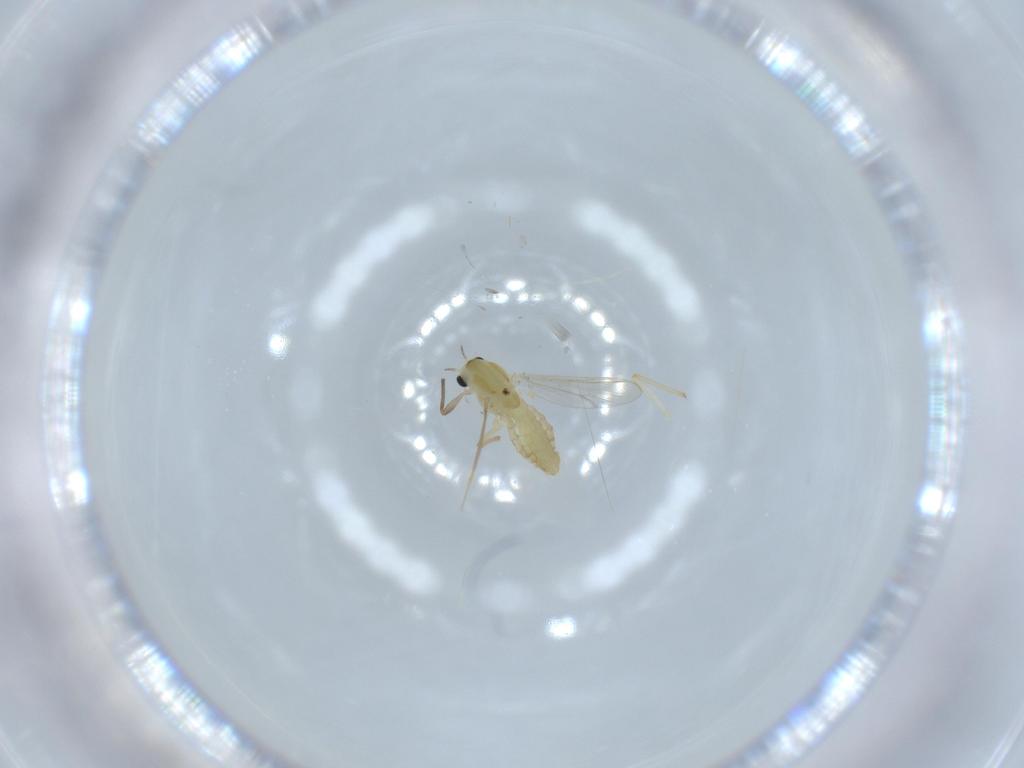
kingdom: Animalia
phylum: Arthropoda
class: Insecta
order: Diptera
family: Chironomidae
